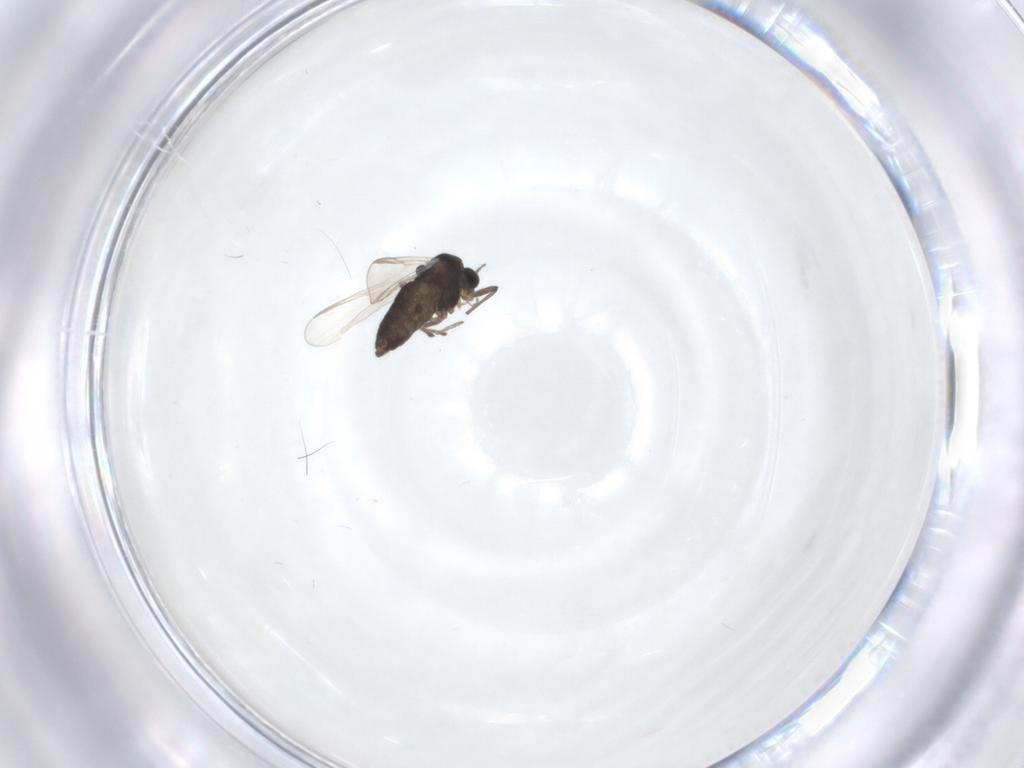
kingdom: Animalia
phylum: Arthropoda
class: Insecta
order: Diptera
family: Chironomidae
